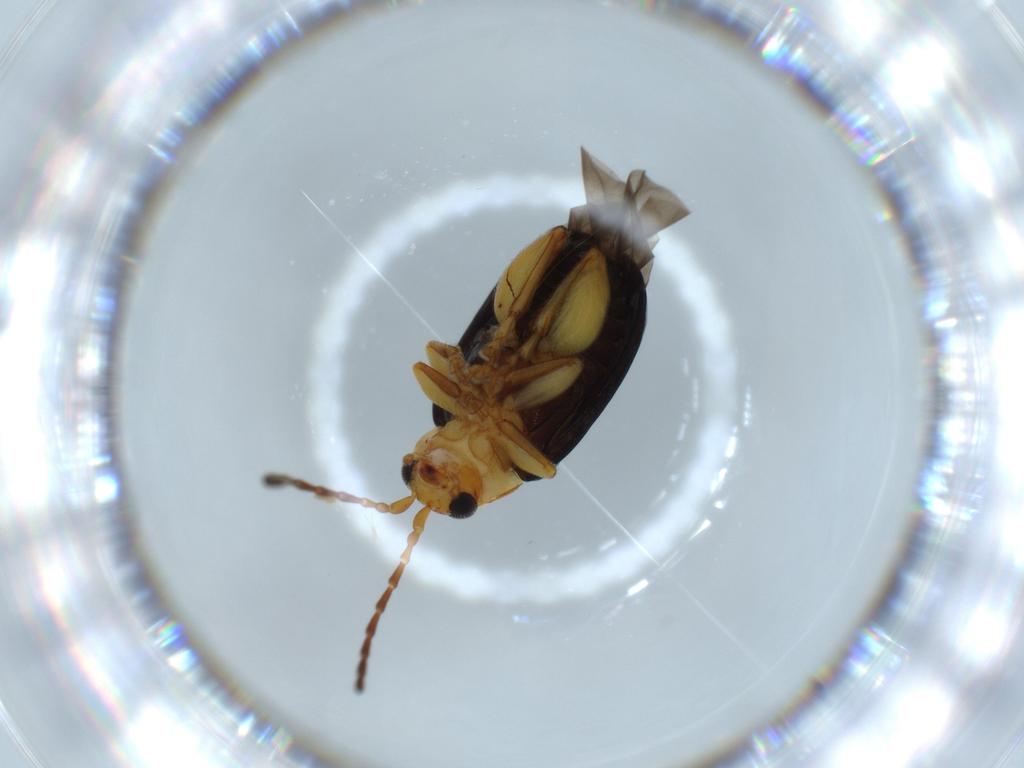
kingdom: Animalia
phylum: Arthropoda
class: Insecta
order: Coleoptera
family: Chrysomelidae
